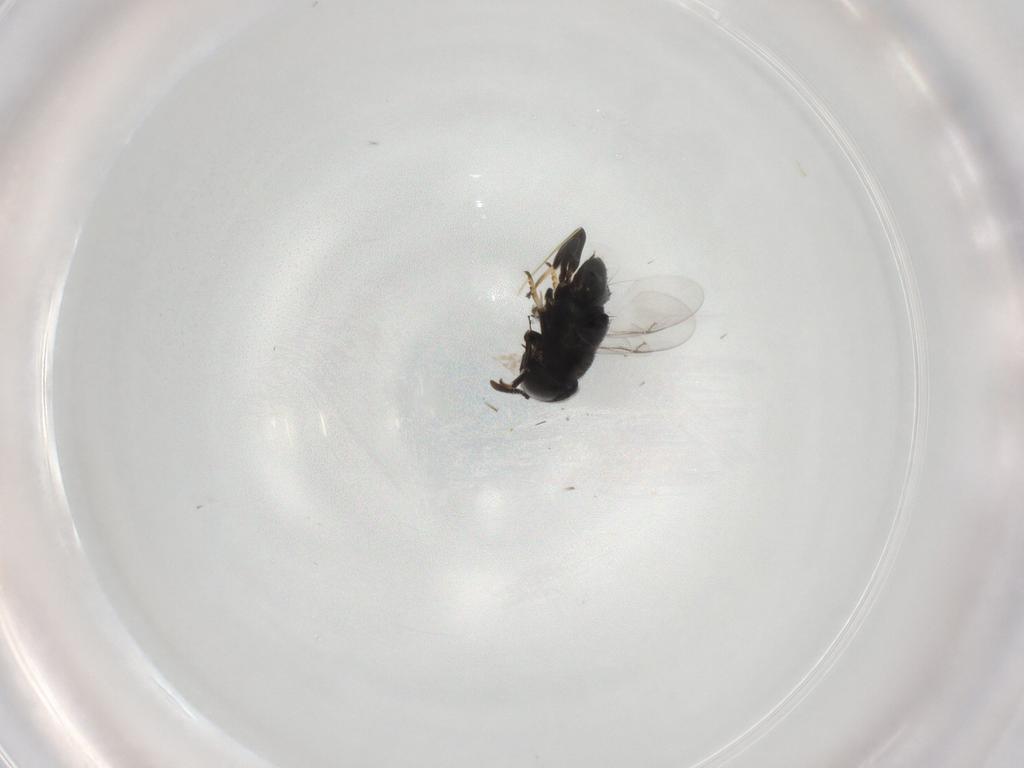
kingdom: Animalia
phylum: Arthropoda
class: Insecta
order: Hymenoptera
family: Encyrtidae
